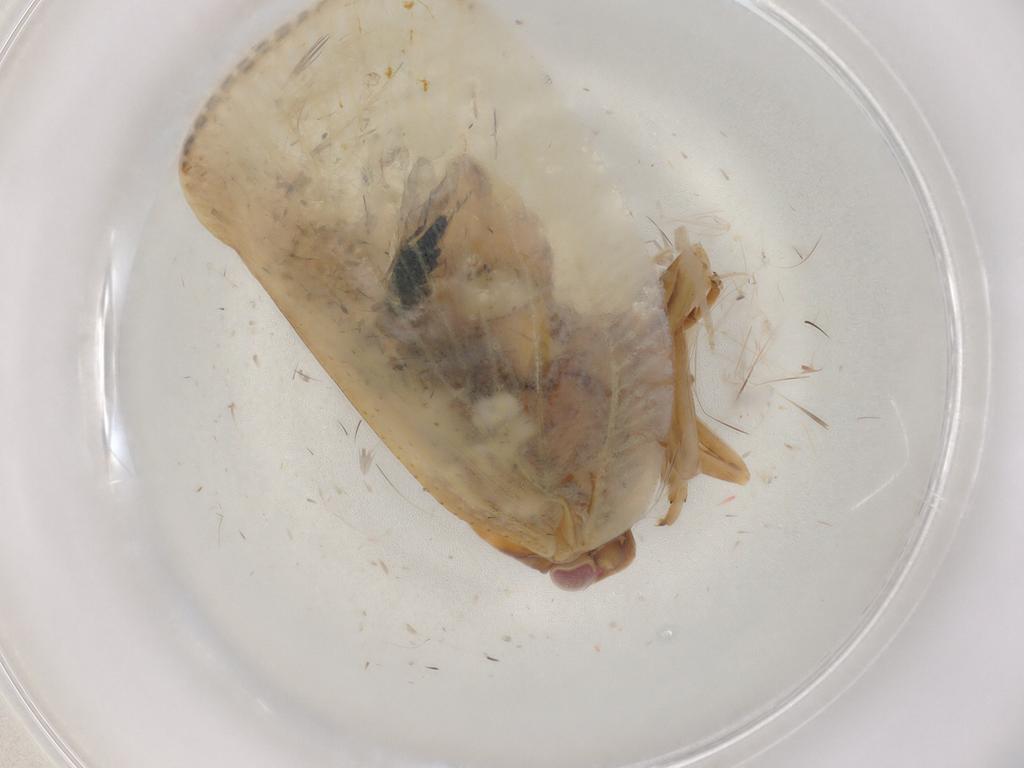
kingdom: Animalia
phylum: Arthropoda
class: Insecta
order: Hemiptera
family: Flatidae
